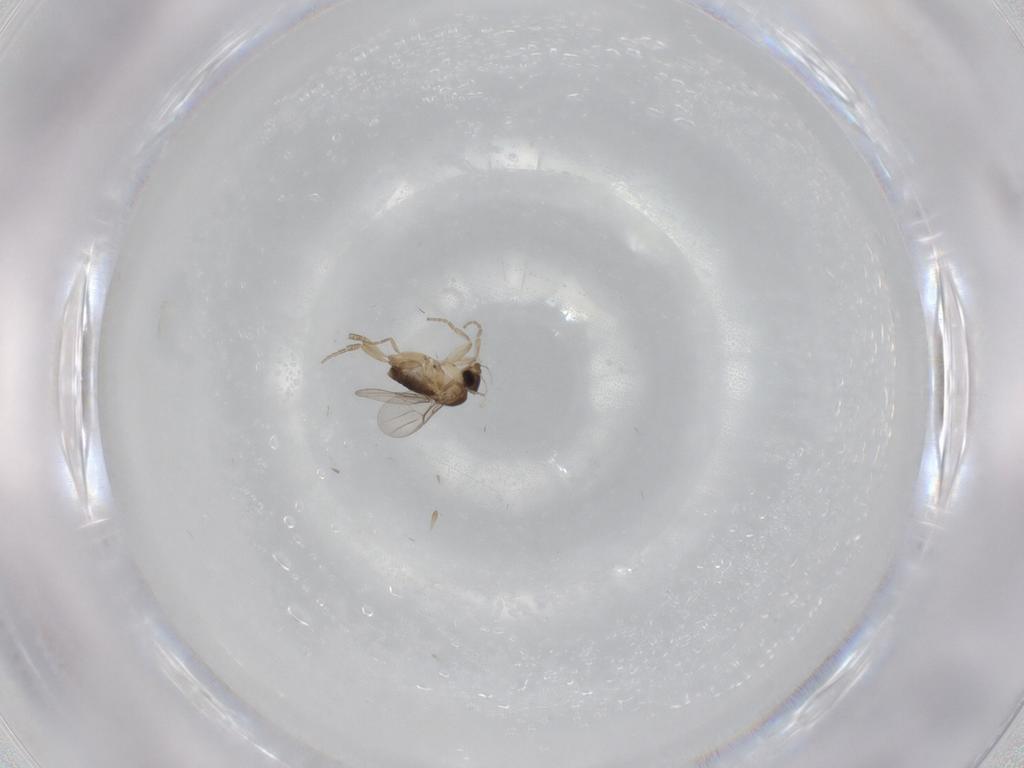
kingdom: Animalia
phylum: Arthropoda
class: Insecta
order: Diptera
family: Phoridae
